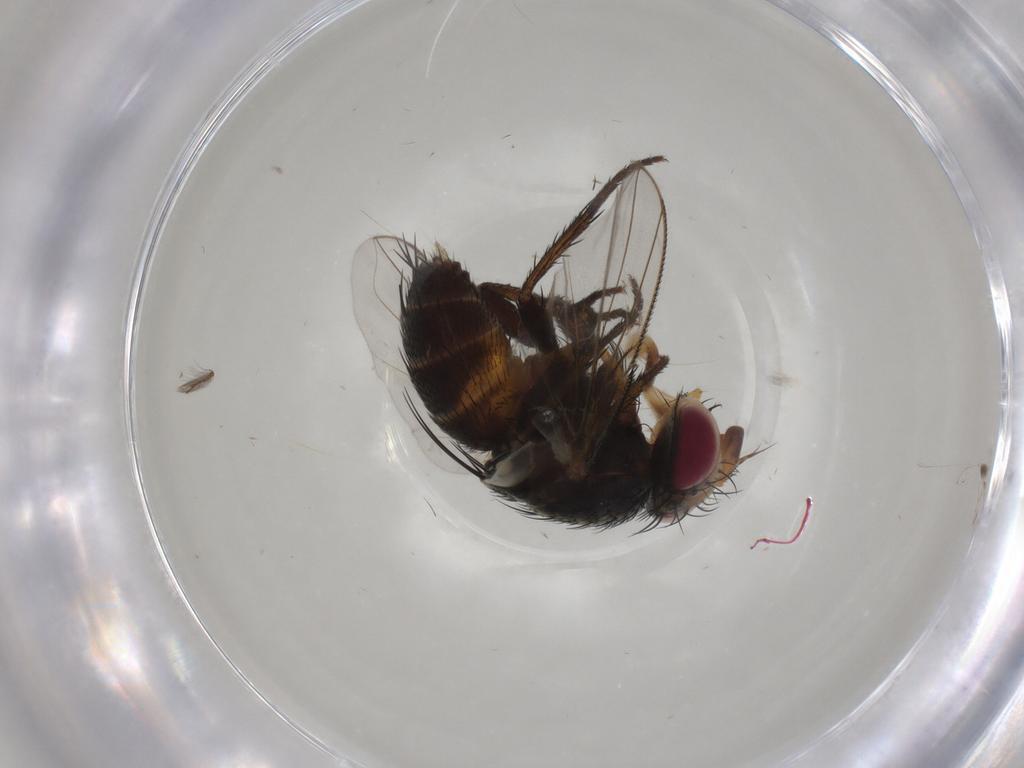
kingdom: Animalia
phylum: Arthropoda
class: Insecta
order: Diptera
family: Tachinidae
